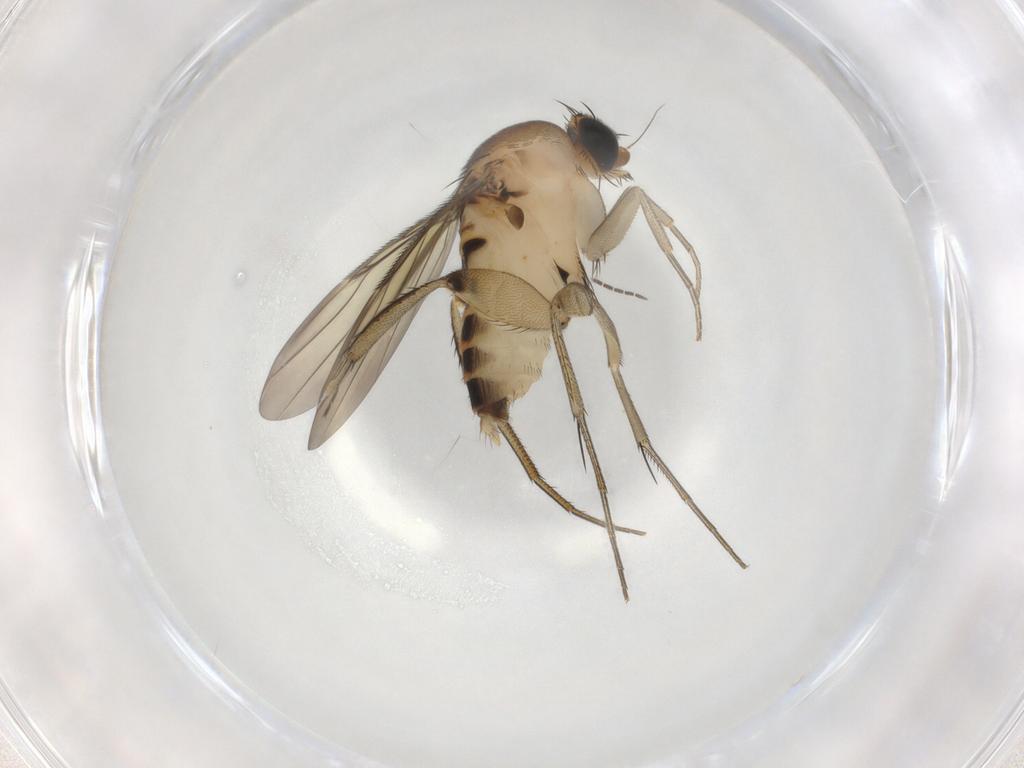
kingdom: Animalia
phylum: Arthropoda
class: Insecta
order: Diptera
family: Phoridae
